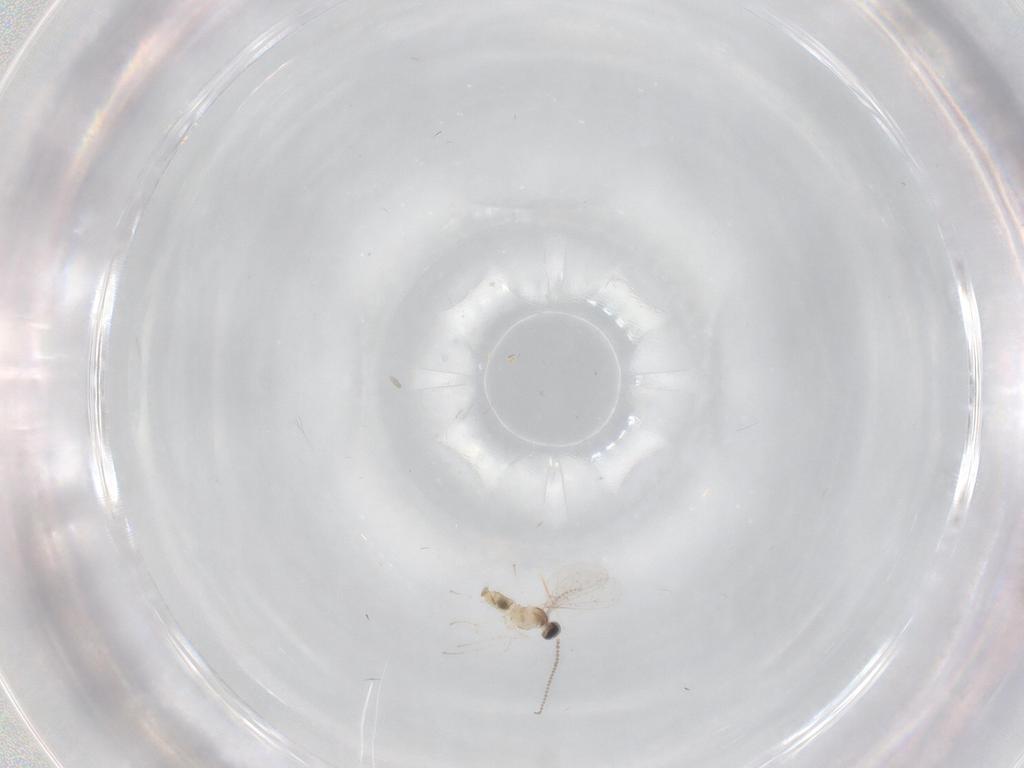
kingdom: Animalia
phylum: Arthropoda
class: Insecta
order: Diptera
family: Cecidomyiidae
